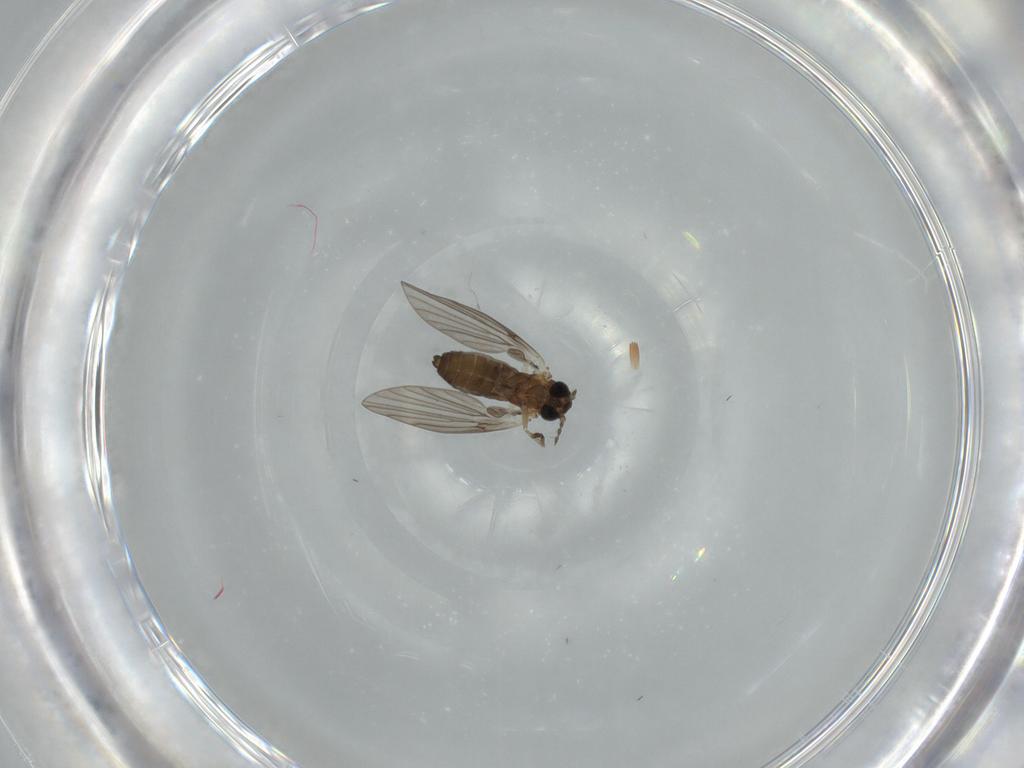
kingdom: Animalia
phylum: Arthropoda
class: Insecta
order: Diptera
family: Psychodidae
